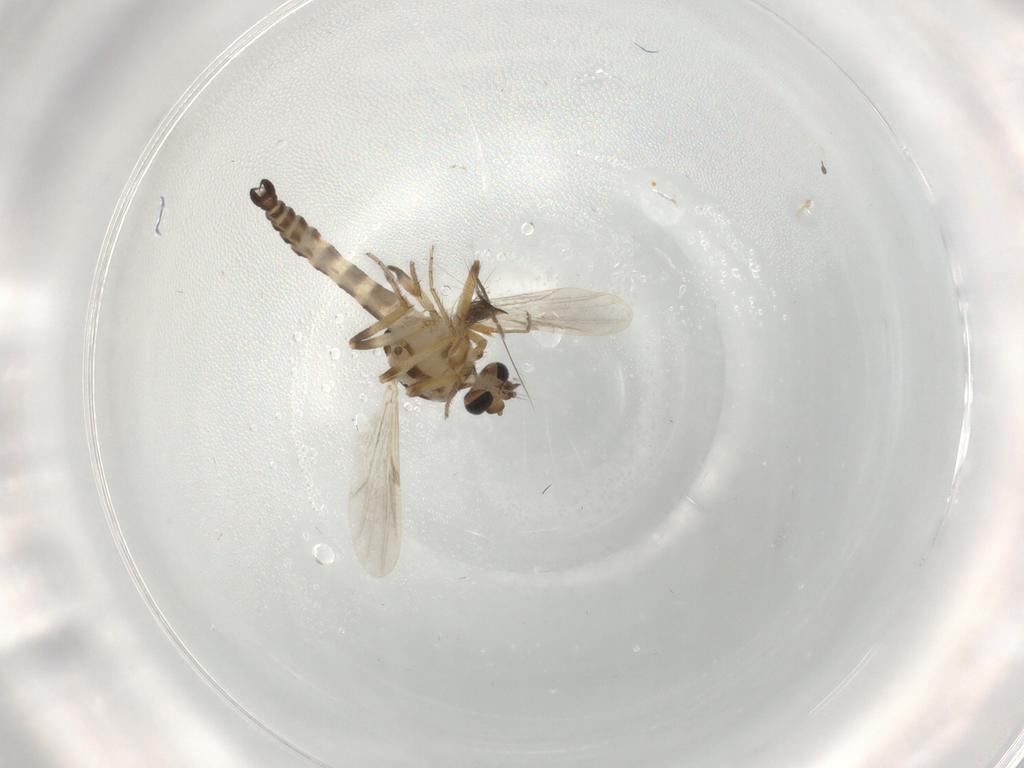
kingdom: Animalia
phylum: Arthropoda
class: Insecta
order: Diptera
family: Ceratopogonidae
